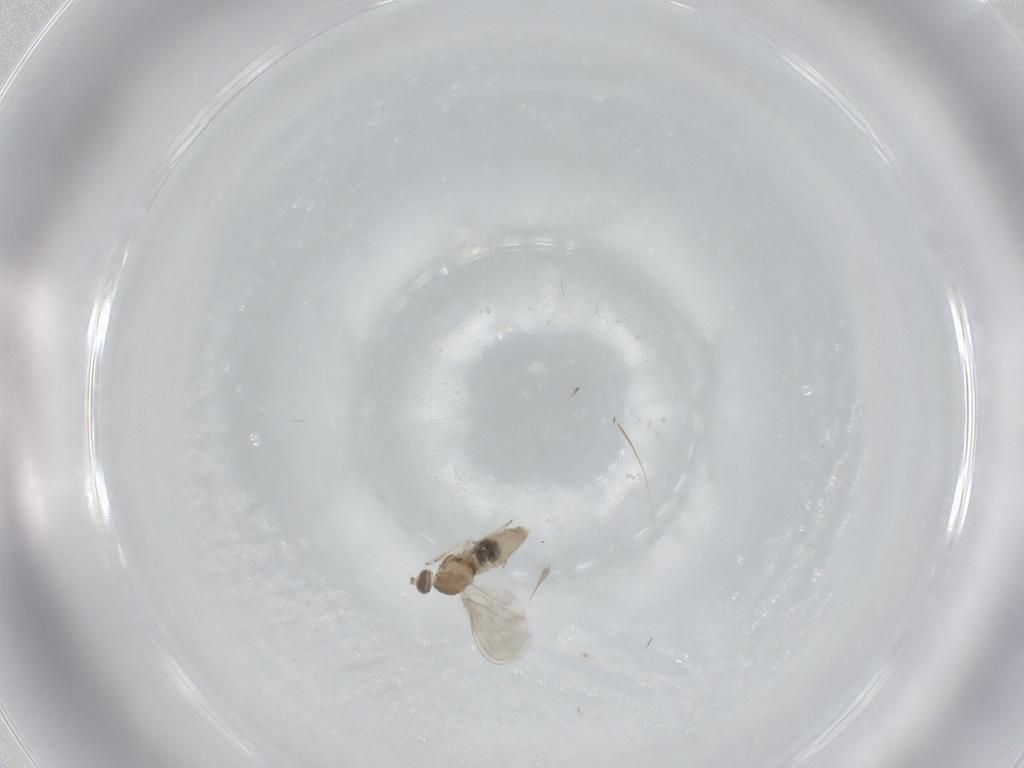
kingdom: Animalia
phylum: Arthropoda
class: Insecta
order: Diptera
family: Cecidomyiidae
